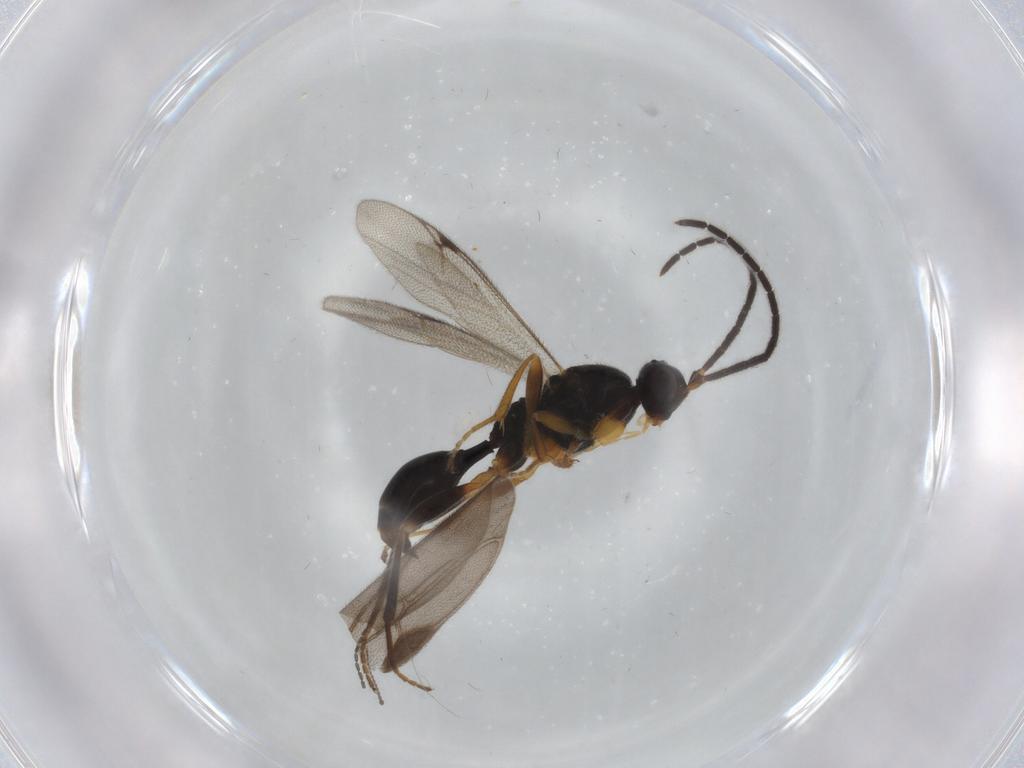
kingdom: Animalia
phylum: Arthropoda
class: Insecta
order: Hymenoptera
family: Formicidae
